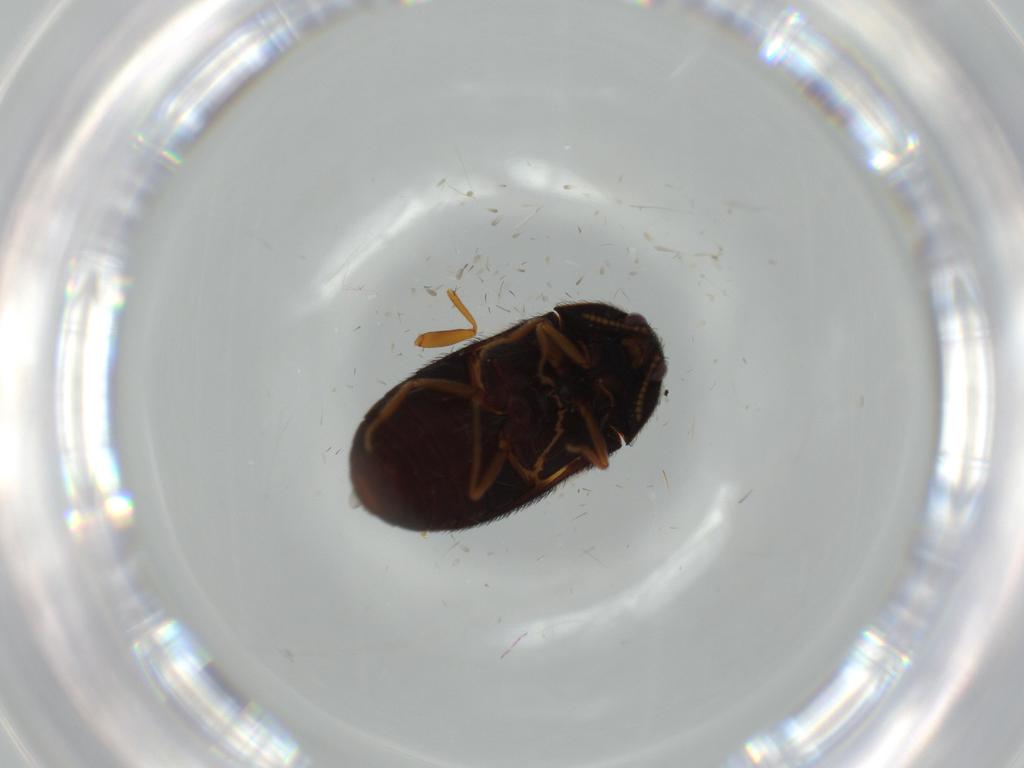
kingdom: Animalia
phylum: Arthropoda
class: Insecta
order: Coleoptera
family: Dermestidae
